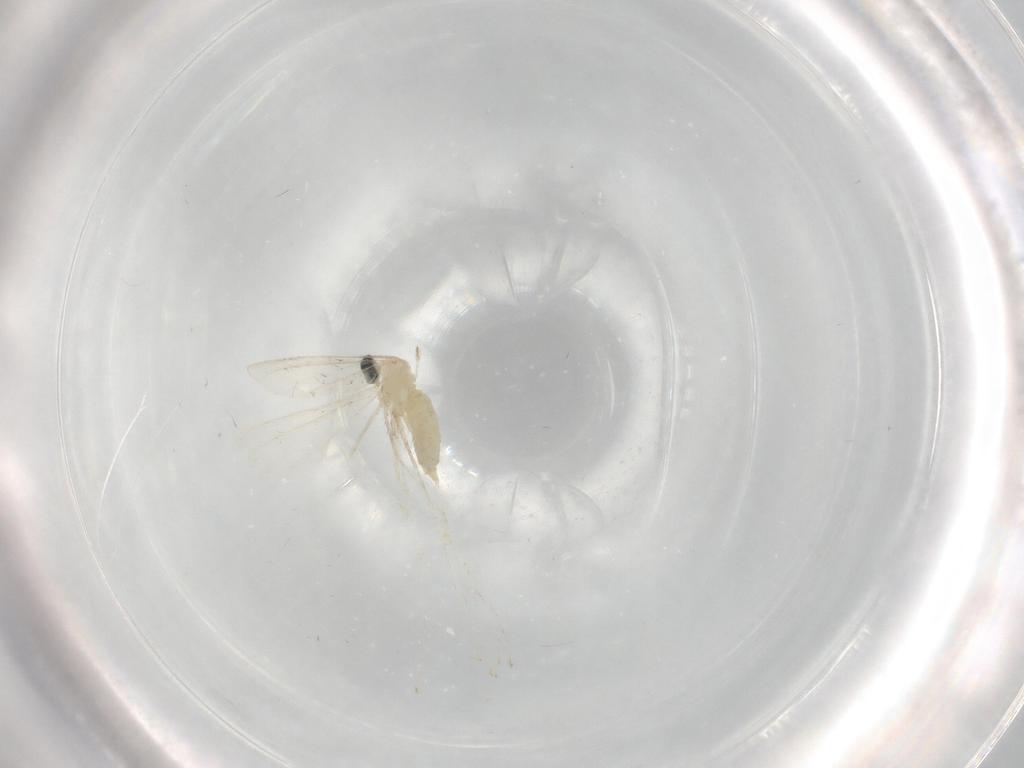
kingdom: Animalia
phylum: Arthropoda
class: Insecta
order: Diptera
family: Cecidomyiidae
